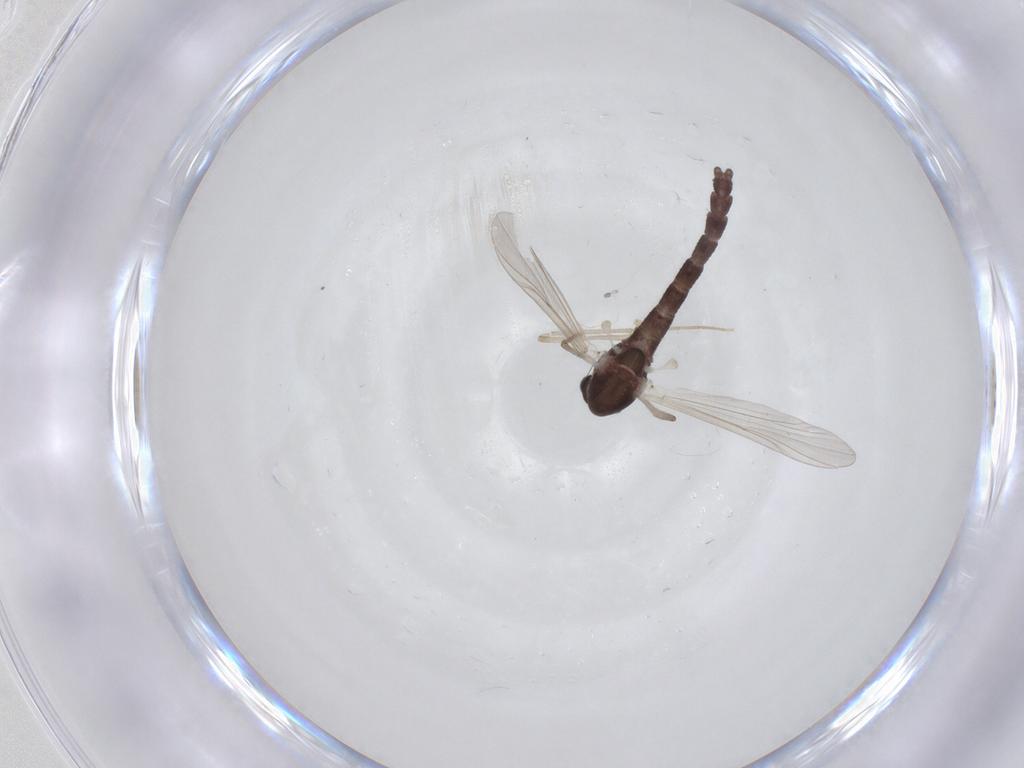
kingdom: Animalia
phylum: Arthropoda
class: Insecta
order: Diptera
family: Chironomidae
